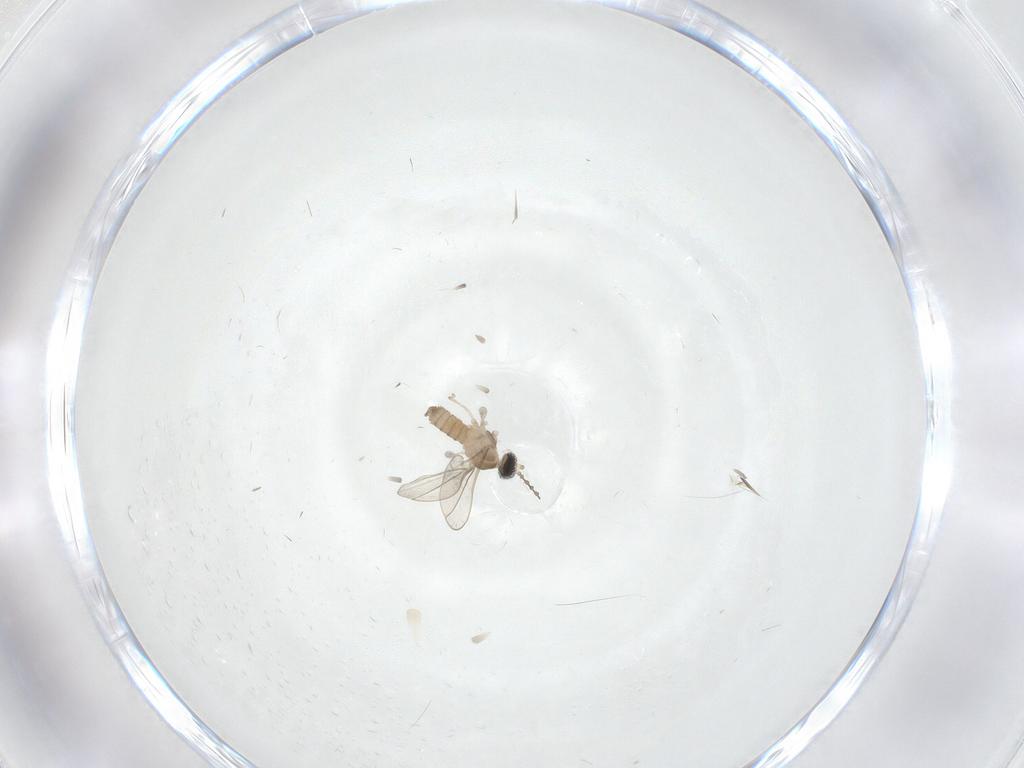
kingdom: Animalia
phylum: Arthropoda
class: Insecta
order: Diptera
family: Cecidomyiidae
